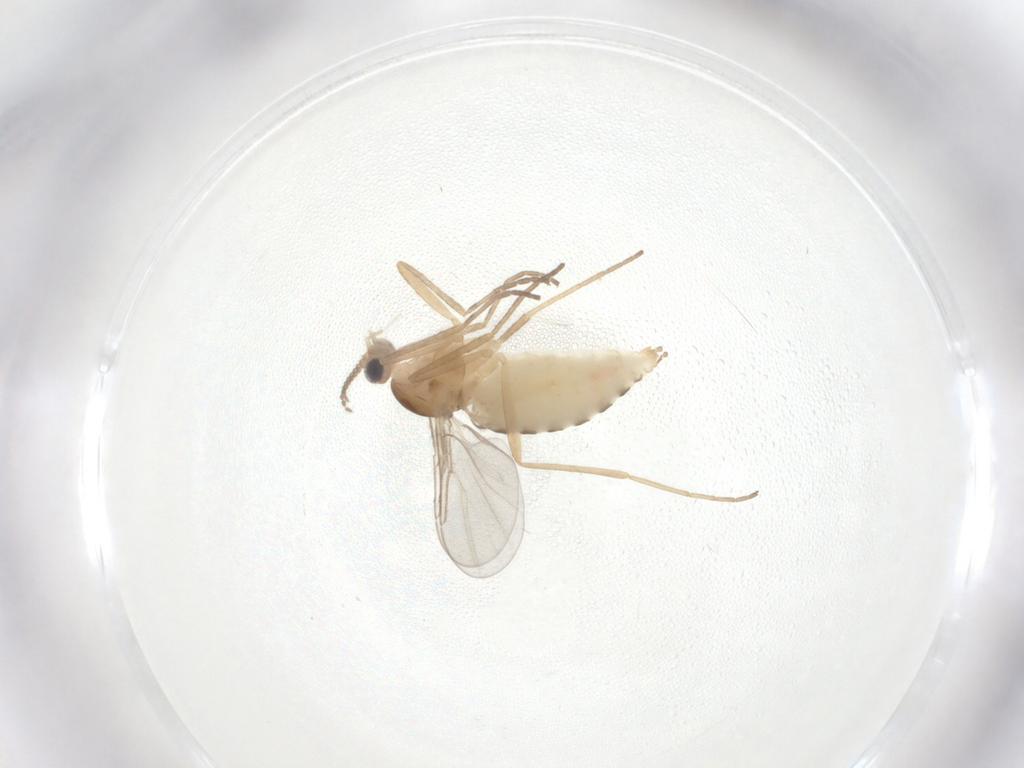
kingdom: Animalia
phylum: Arthropoda
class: Insecta
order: Diptera
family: Cecidomyiidae
